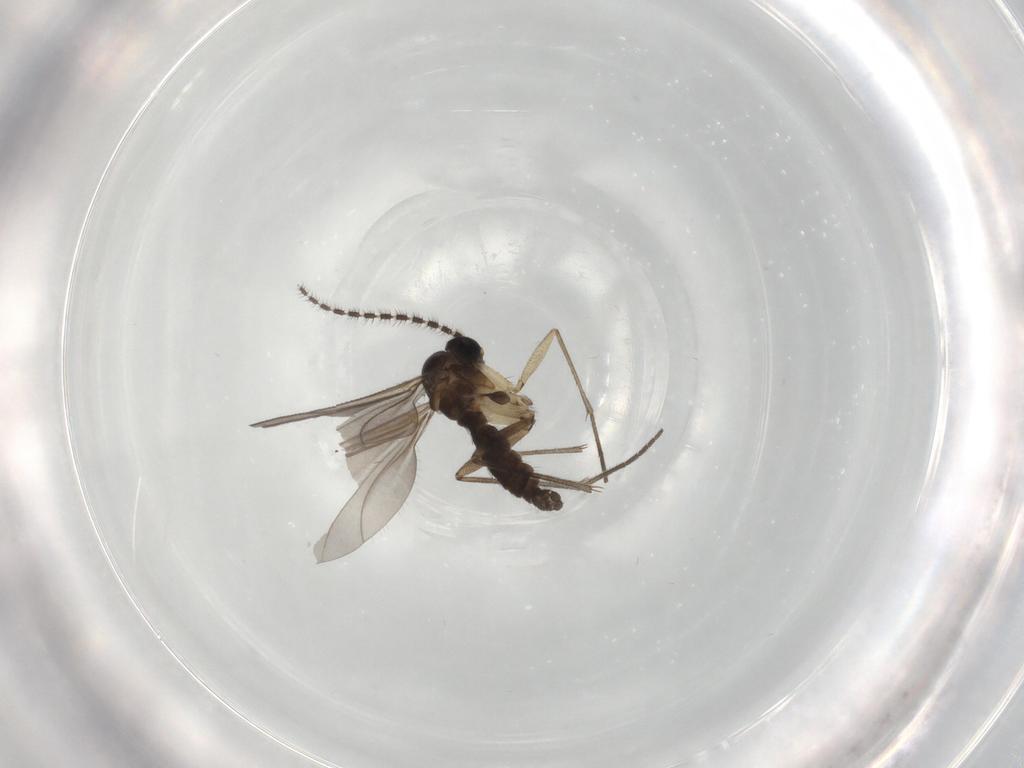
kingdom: Animalia
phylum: Arthropoda
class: Insecta
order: Diptera
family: Sciaridae
